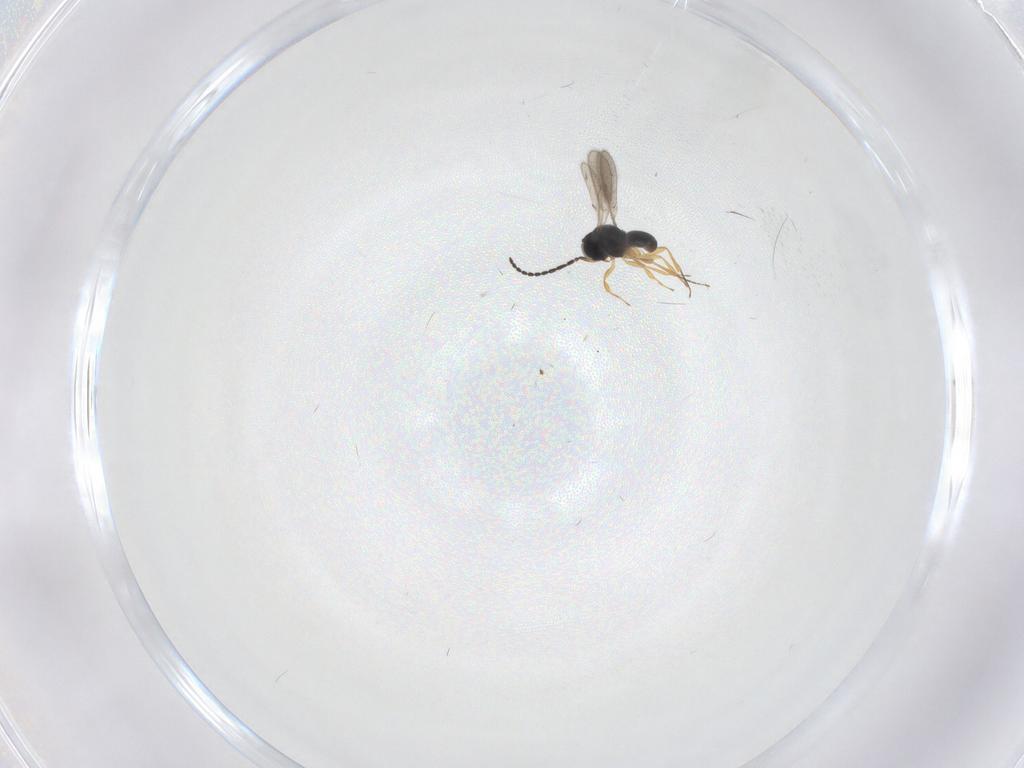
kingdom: Animalia
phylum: Arthropoda
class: Insecta
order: Hymenoptera
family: Scelionidae
